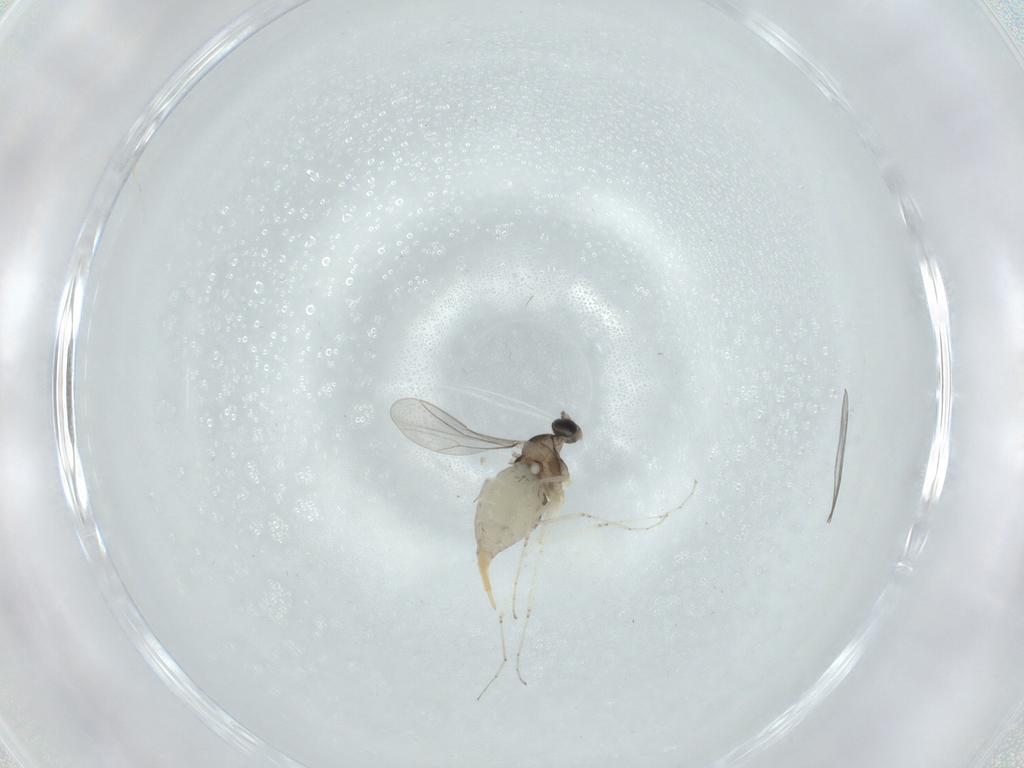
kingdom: Animalia
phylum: Arthropoda
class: Insecta
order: Diptera
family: Cecidomyiidae
